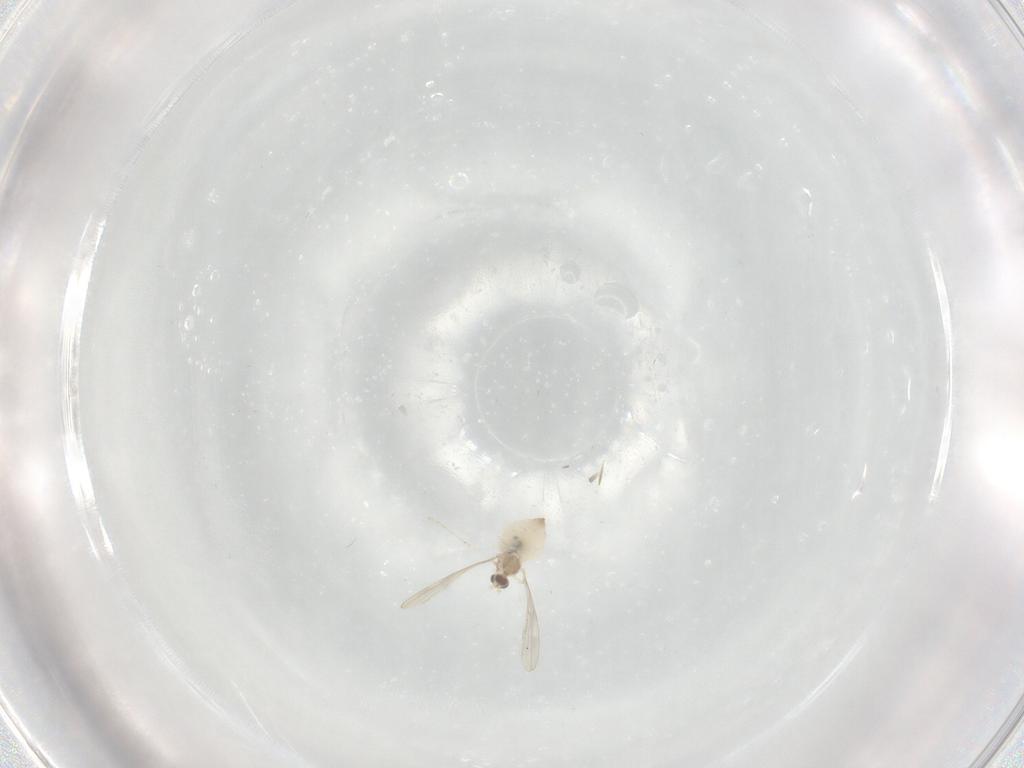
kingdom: Animalia
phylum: Arthropoda
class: Insecta
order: Diptera
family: Cecidomyiidae
